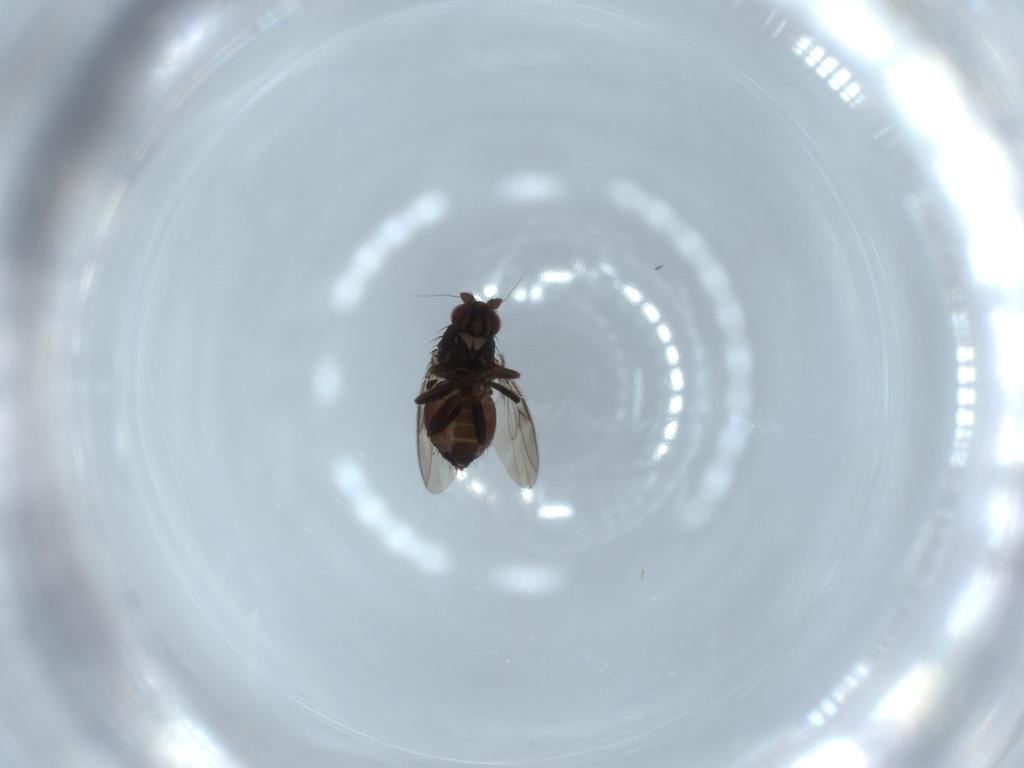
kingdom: Animalia
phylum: Arthropoda
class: Insecta
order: Diptera
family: Sphaeroceridae
